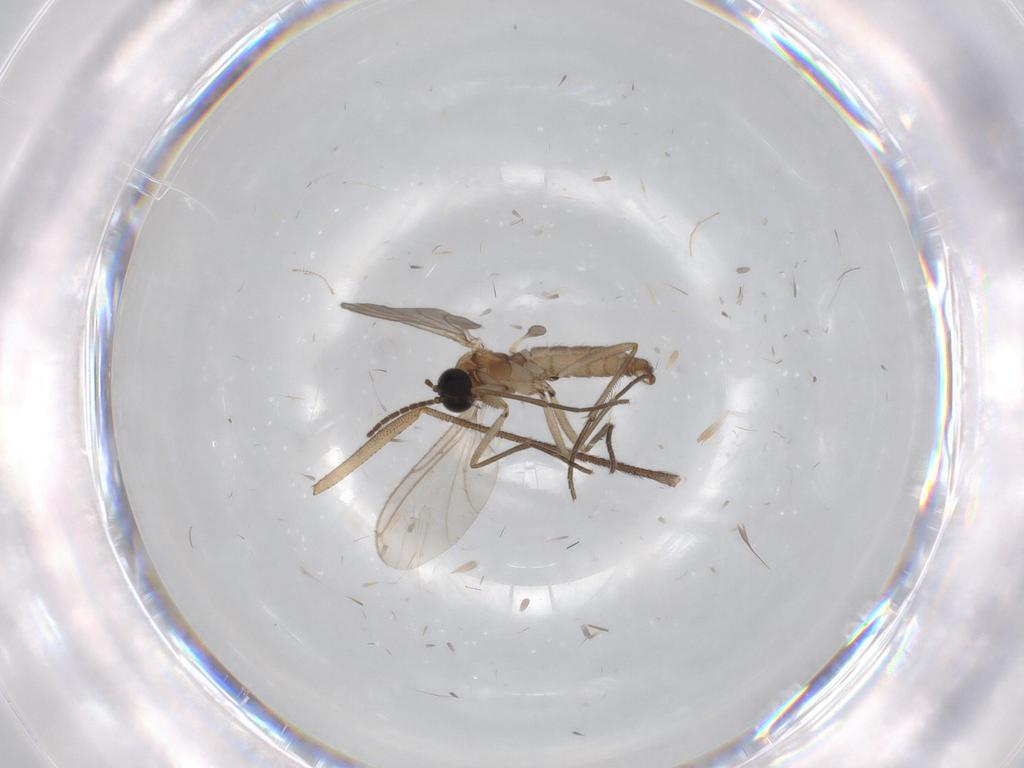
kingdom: Animalia
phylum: Arthropoda
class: Insecta
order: Diptera
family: Sciaridae
